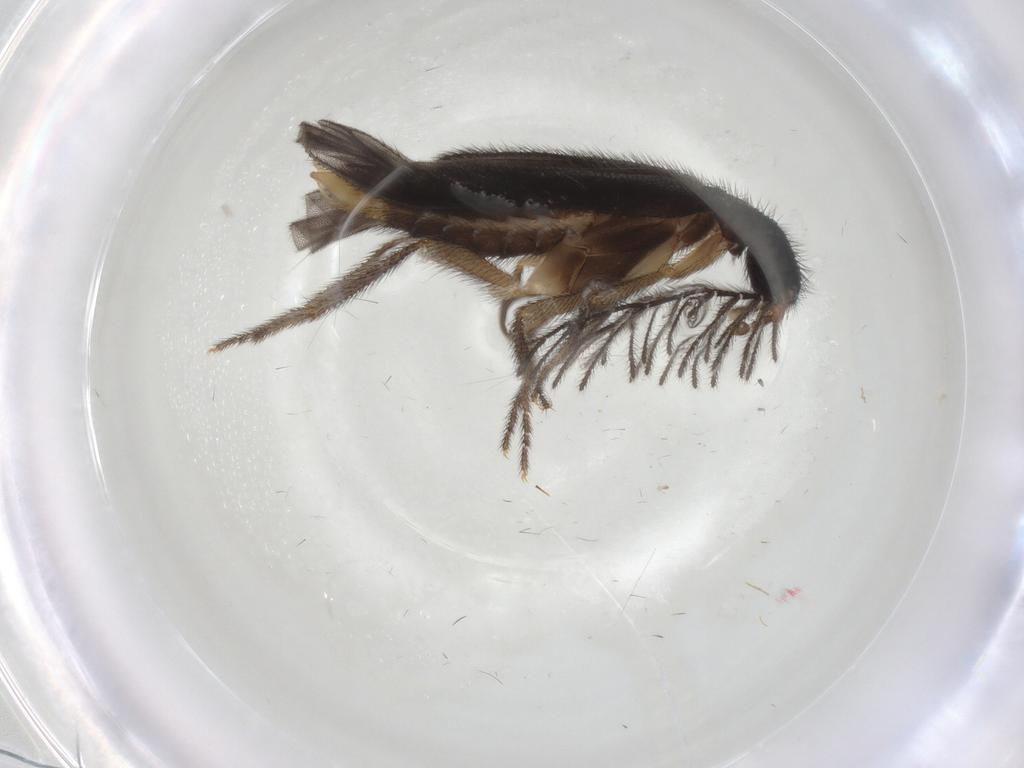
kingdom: Animalia
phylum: Arthropoda
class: Insecta
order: Coleoptera
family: Phengodidae
